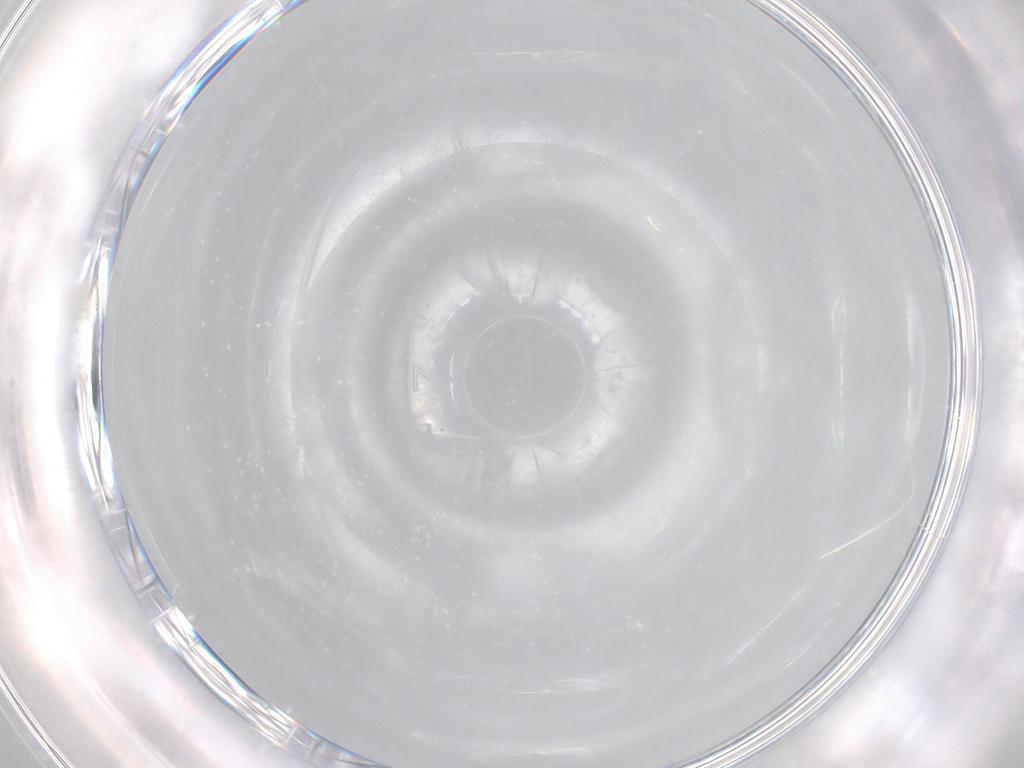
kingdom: Animalia
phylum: Arthropoda
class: Insecta
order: Diptera
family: Sarcophagidae
